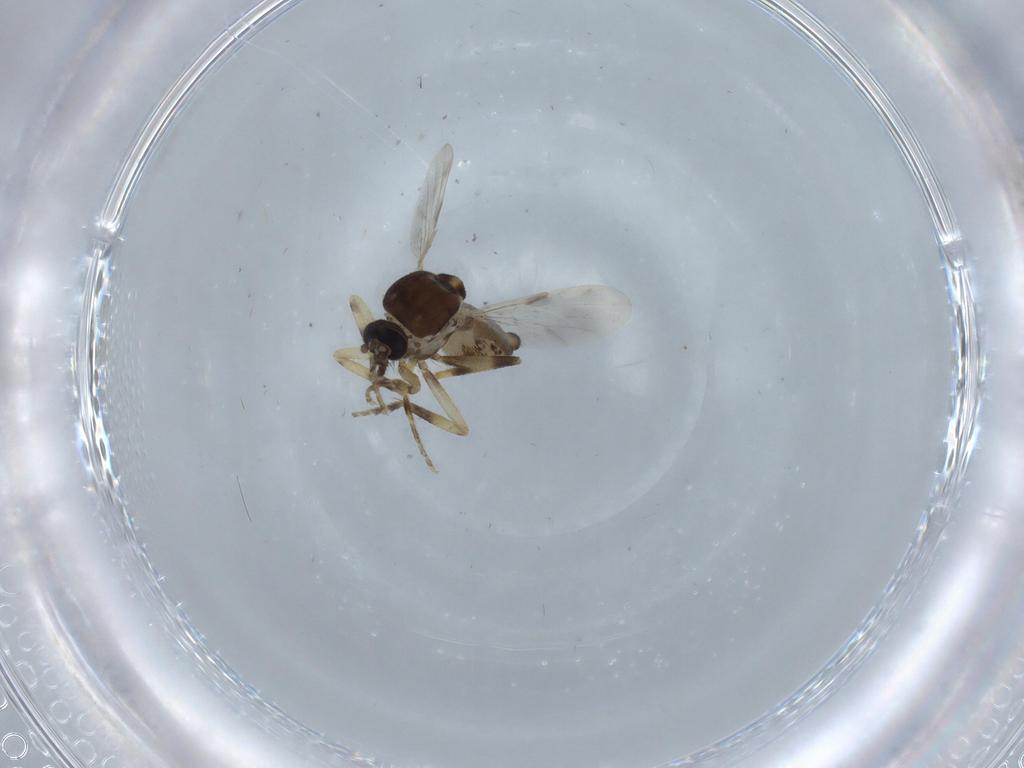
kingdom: Animalia
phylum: Arthropoda
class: Insecta
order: Diptera
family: Ceratopogonidae
